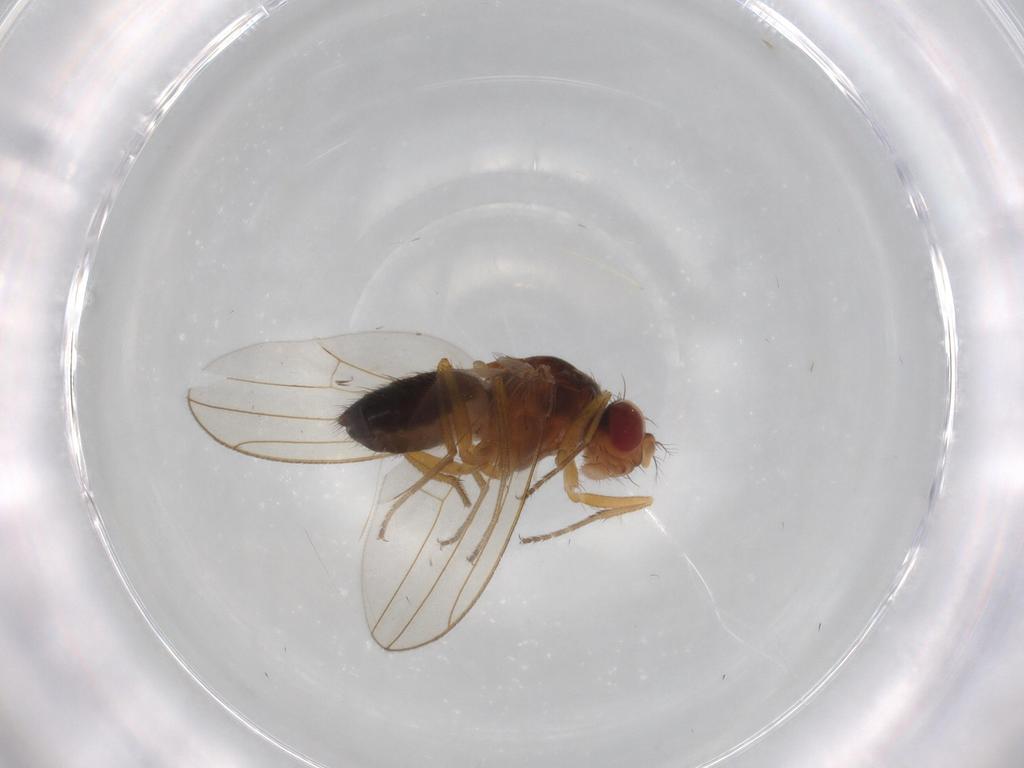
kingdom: Animalia
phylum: Arthropoda
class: Insecta
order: Diptera
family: Drosophilidae
